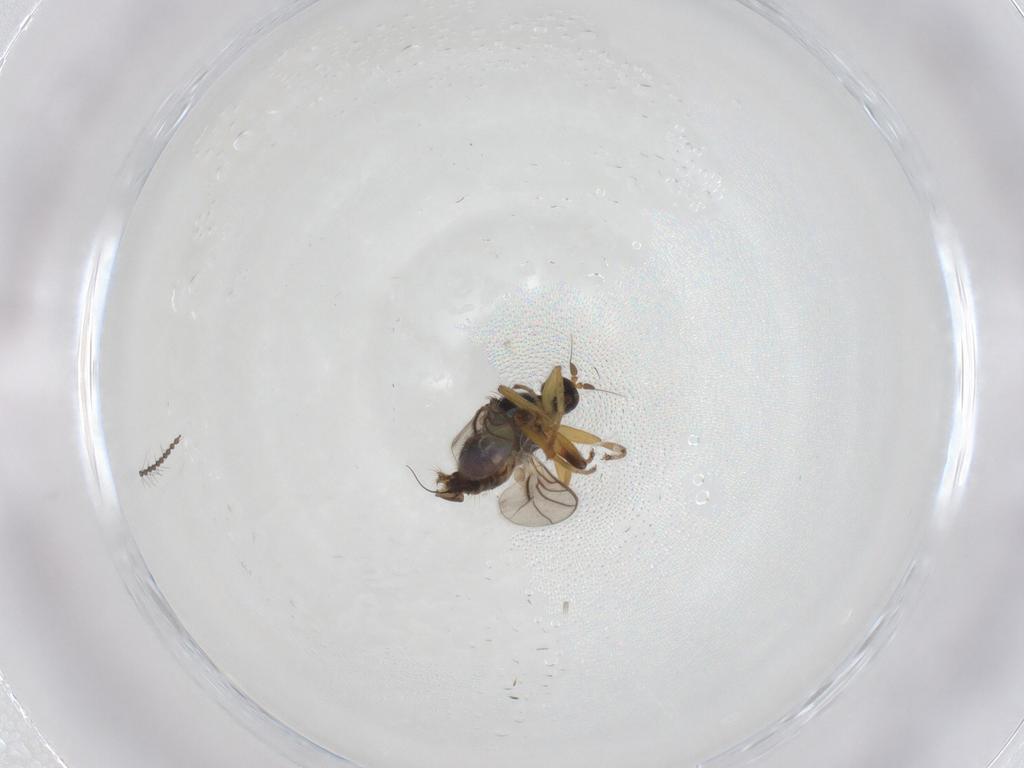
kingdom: Animalia
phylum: Arthropoda
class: Insecta
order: Diptera
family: Hybotidae
